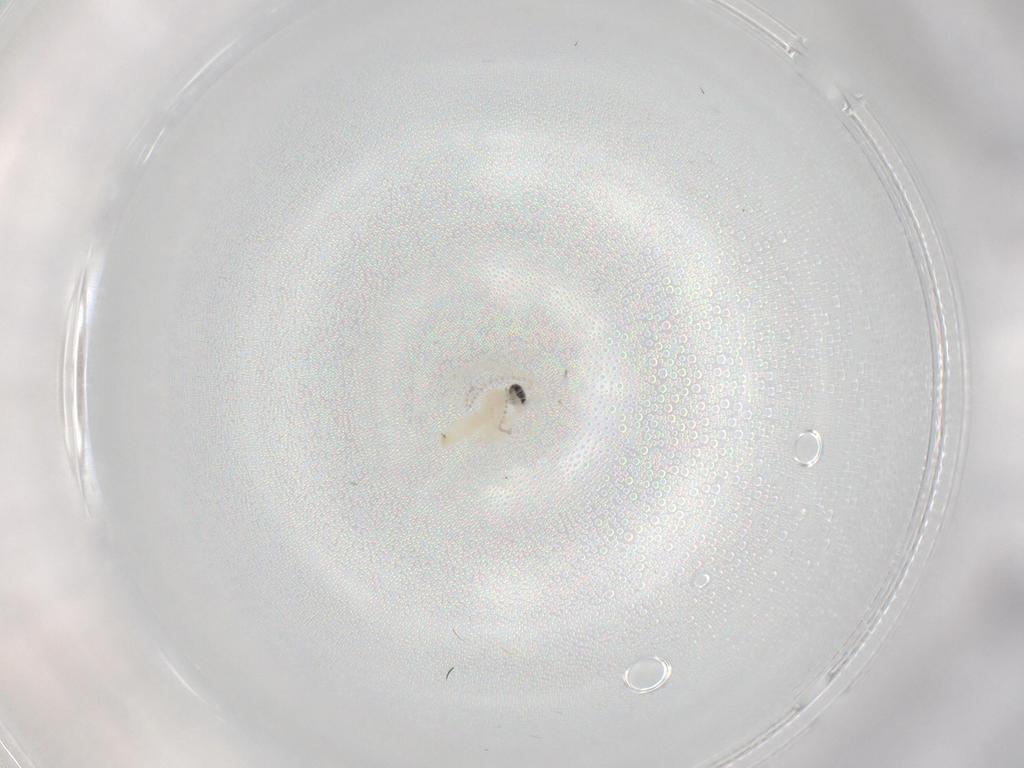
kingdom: Animalia
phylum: Arthropoda
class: Insecta
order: Diptera
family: Cecidomyiidae
